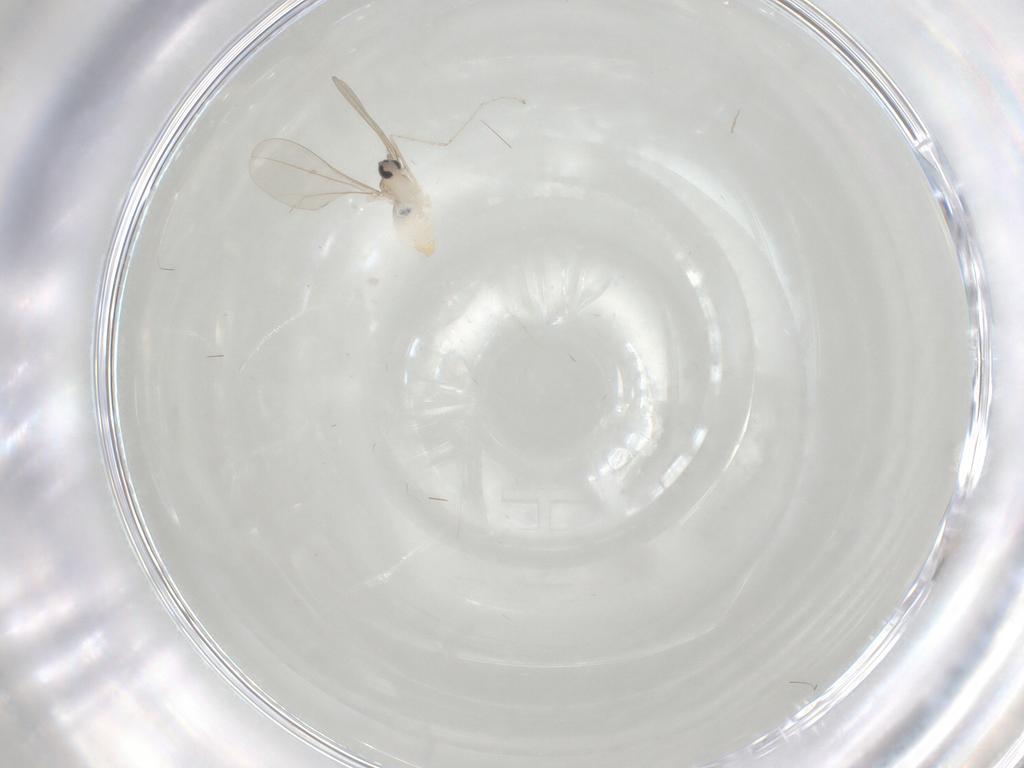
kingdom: Animalia
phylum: Arthropoda
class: Insecta
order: Diptera
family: Cecidomyiidae
